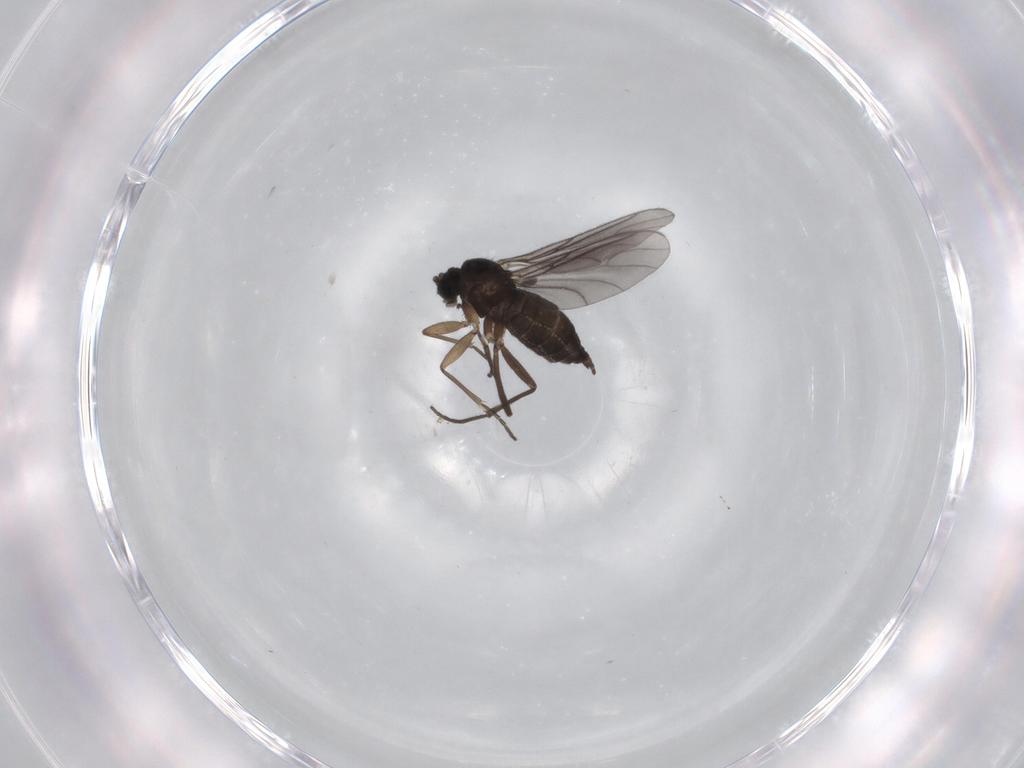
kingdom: Animalia
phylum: Arthropoda
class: Insecta
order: Diptera
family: Sciaridae
